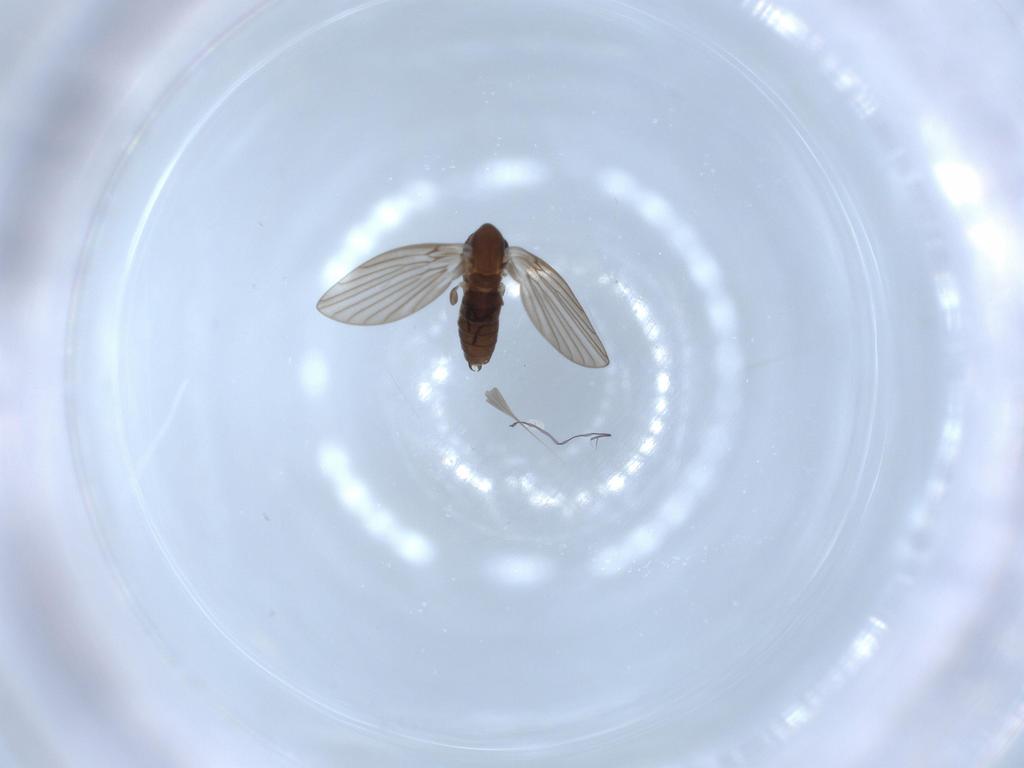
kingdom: Animalia
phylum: Arthropoda
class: Insecta
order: Diptera
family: Psychodidae
